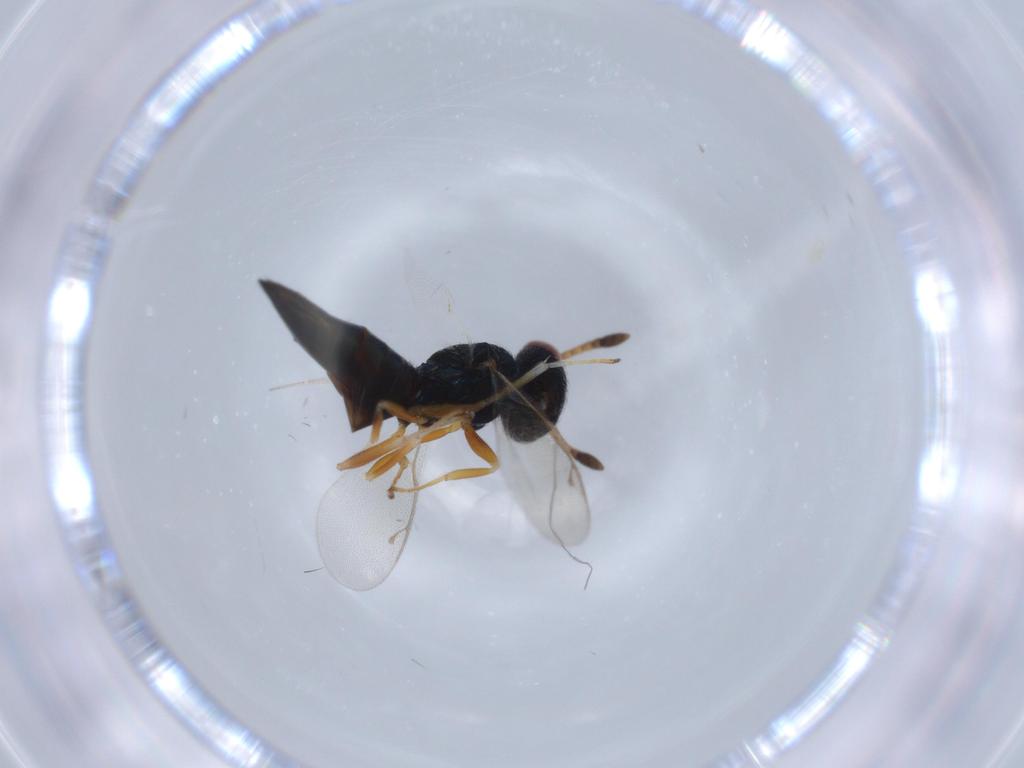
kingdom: Animalia
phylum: Arthropoda
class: Insecta
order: Hymenoptera
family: Pteromalidae
